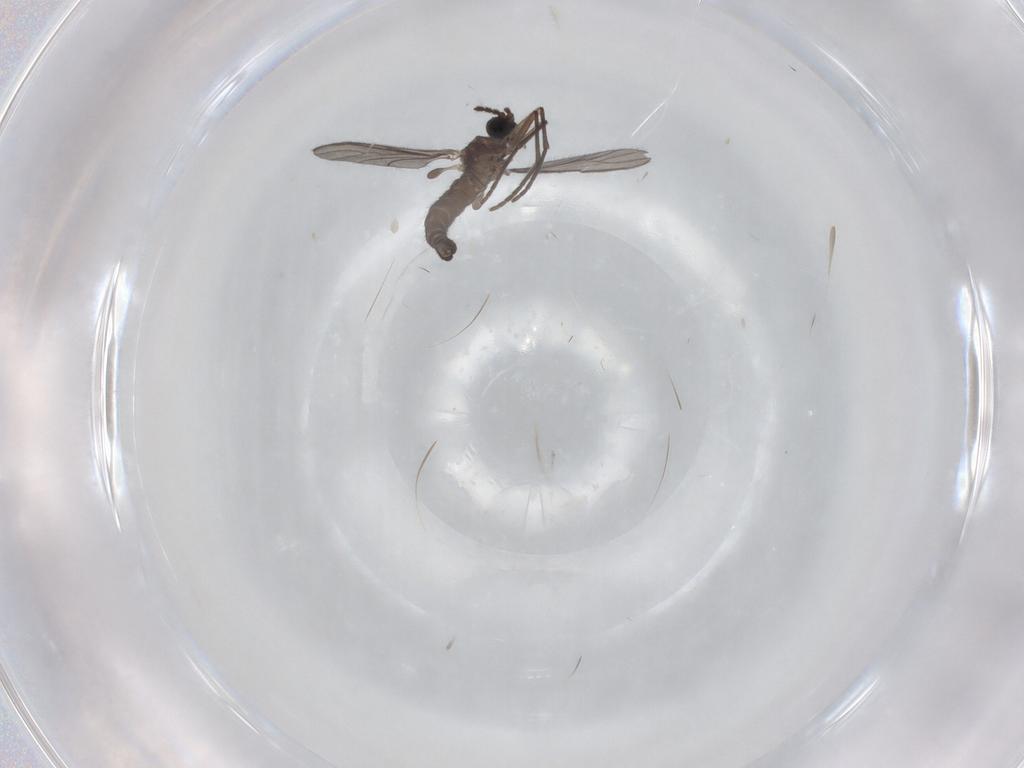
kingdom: Animalia
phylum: Arthropoda
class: Insecta
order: Diptera
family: Sciaridae
